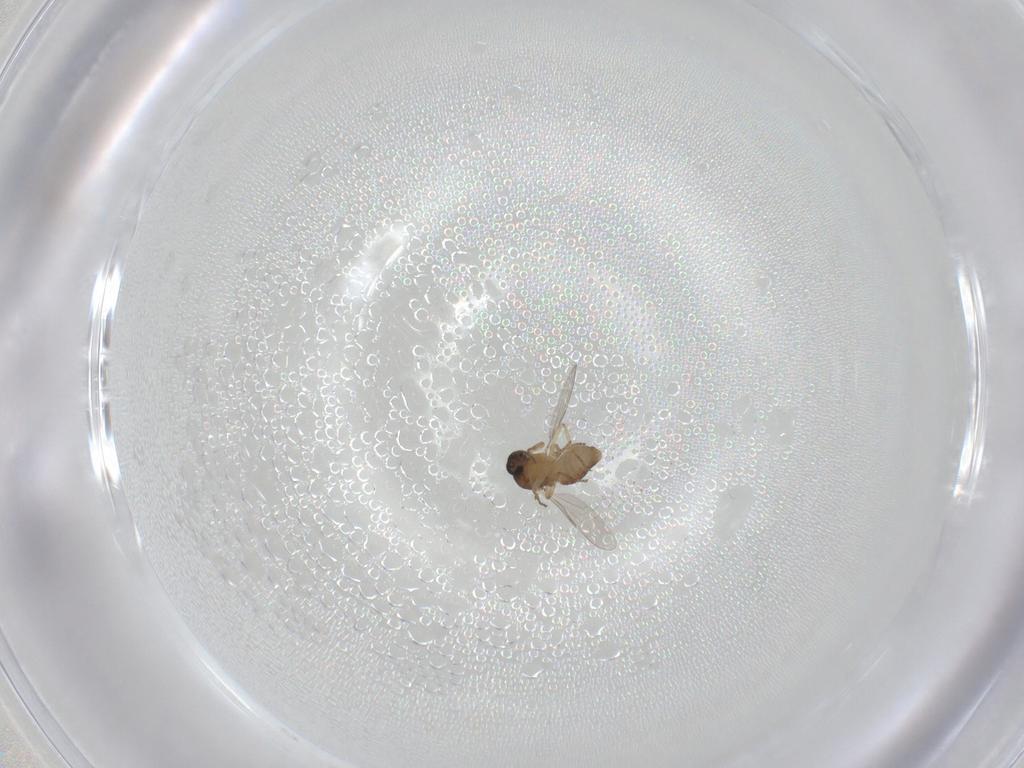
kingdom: Animalia
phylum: Arthropoda
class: Insecta
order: Diptera
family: Ceratopogonidae
